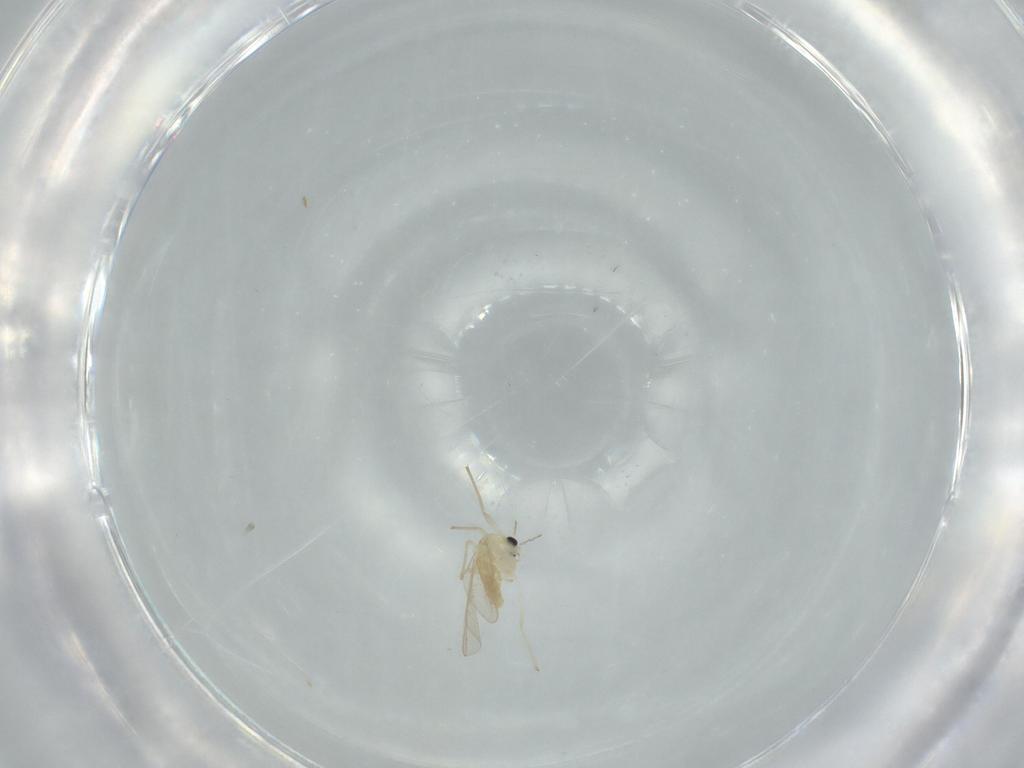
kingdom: Animalia
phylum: Arthropoda
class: Insecta
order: Diptera
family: Chironomidae
